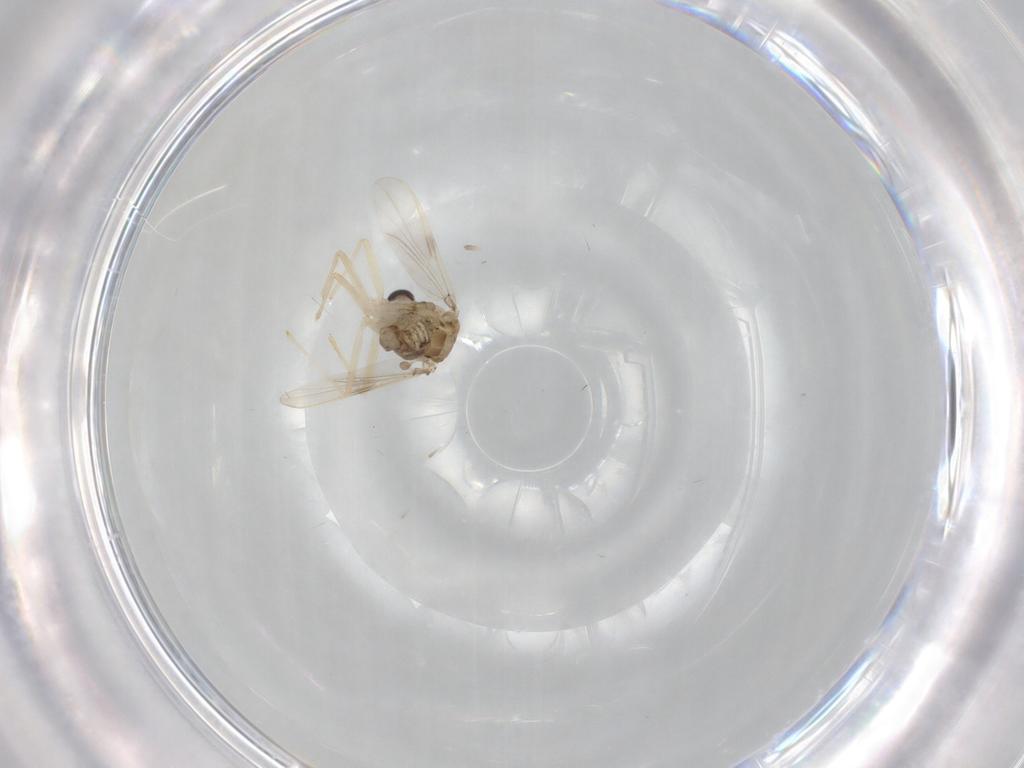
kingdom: Animalia
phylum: Arthropoda
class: Insecta
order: Diptera
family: Chironomidae
